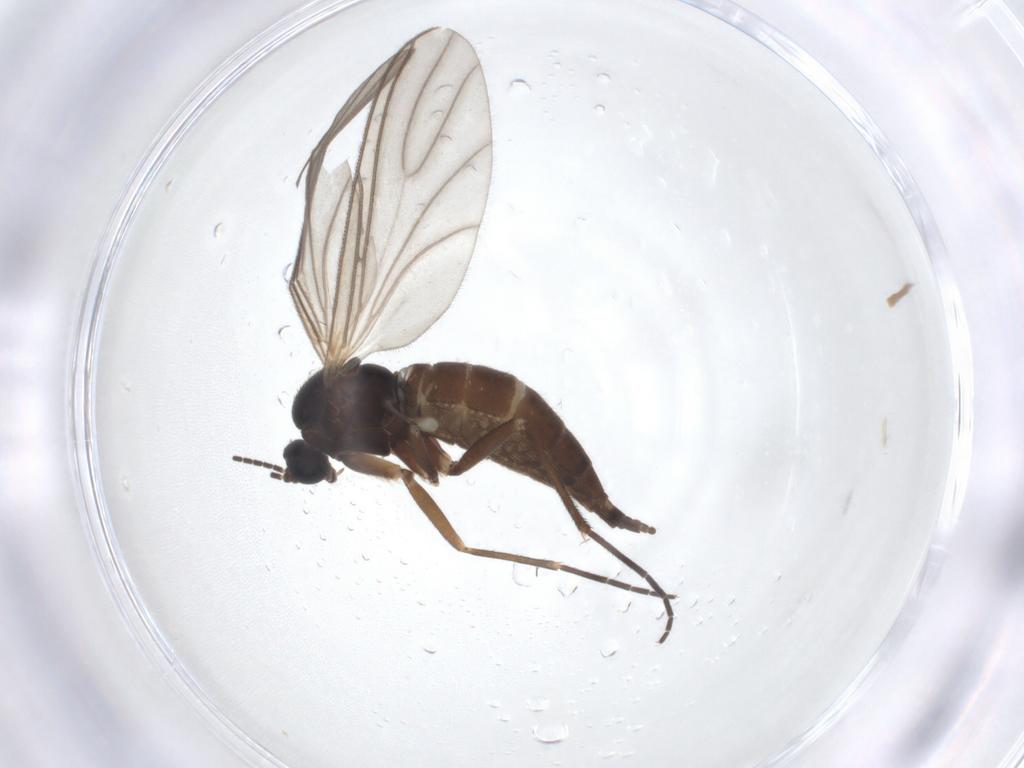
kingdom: Animalia
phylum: Arthropoda
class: Insecta
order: Diptera
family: Sciaridae
